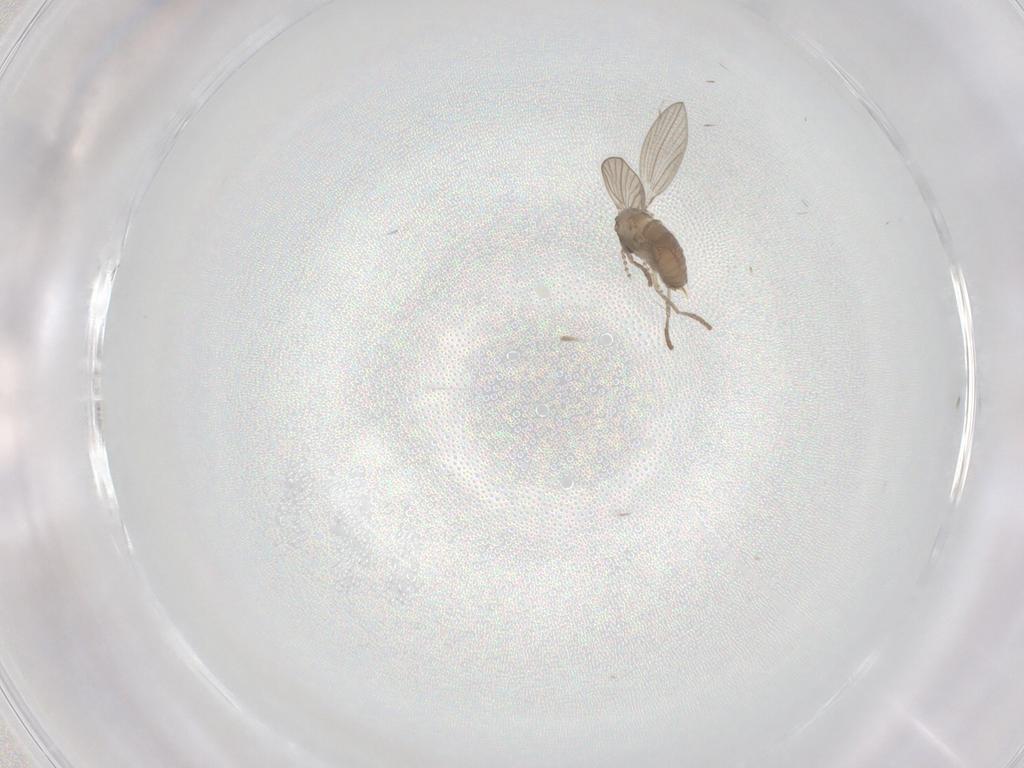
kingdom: Animalia
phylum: Arthropoda
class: Insecta
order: Diptera
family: Psychodidae
